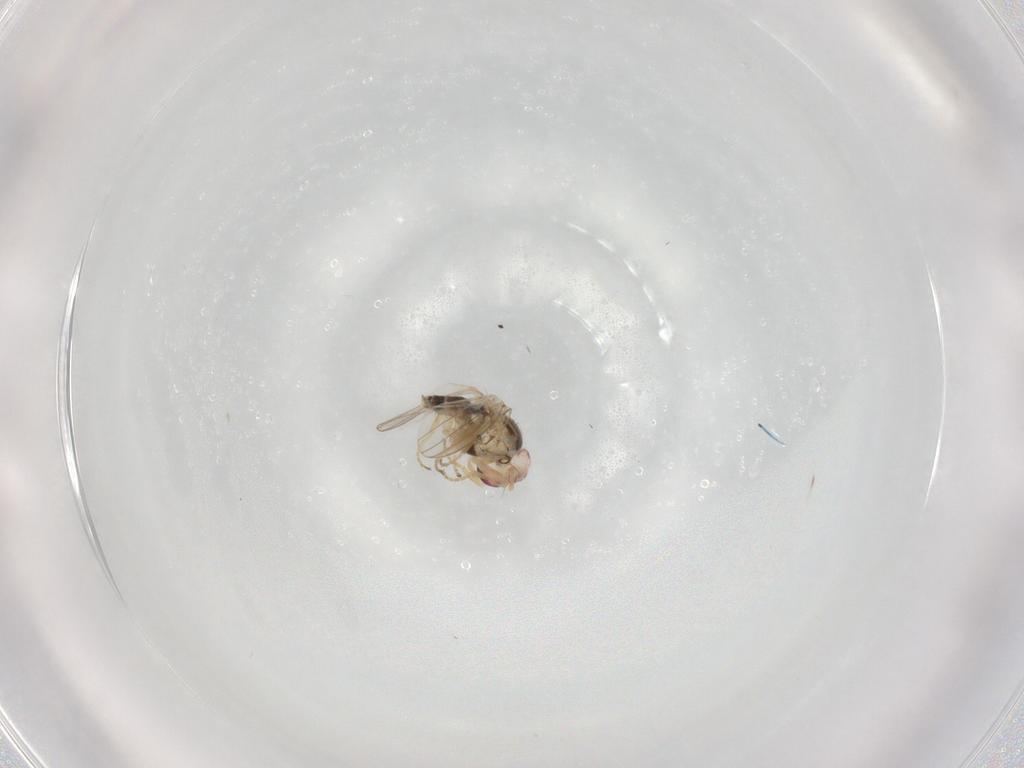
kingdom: Animalia
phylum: Arthropoda
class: Insecta
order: Diptera
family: Chyromyidae
